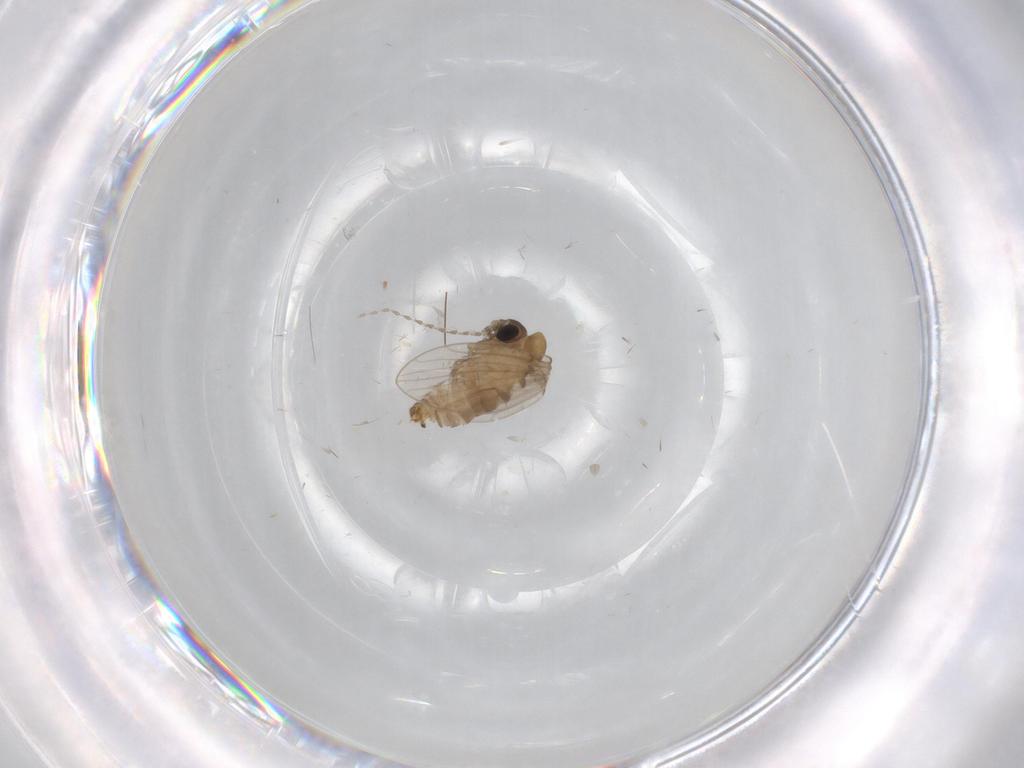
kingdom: Animalia
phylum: Arthropoda
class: Insecta
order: Diptera
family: Limoniidae
